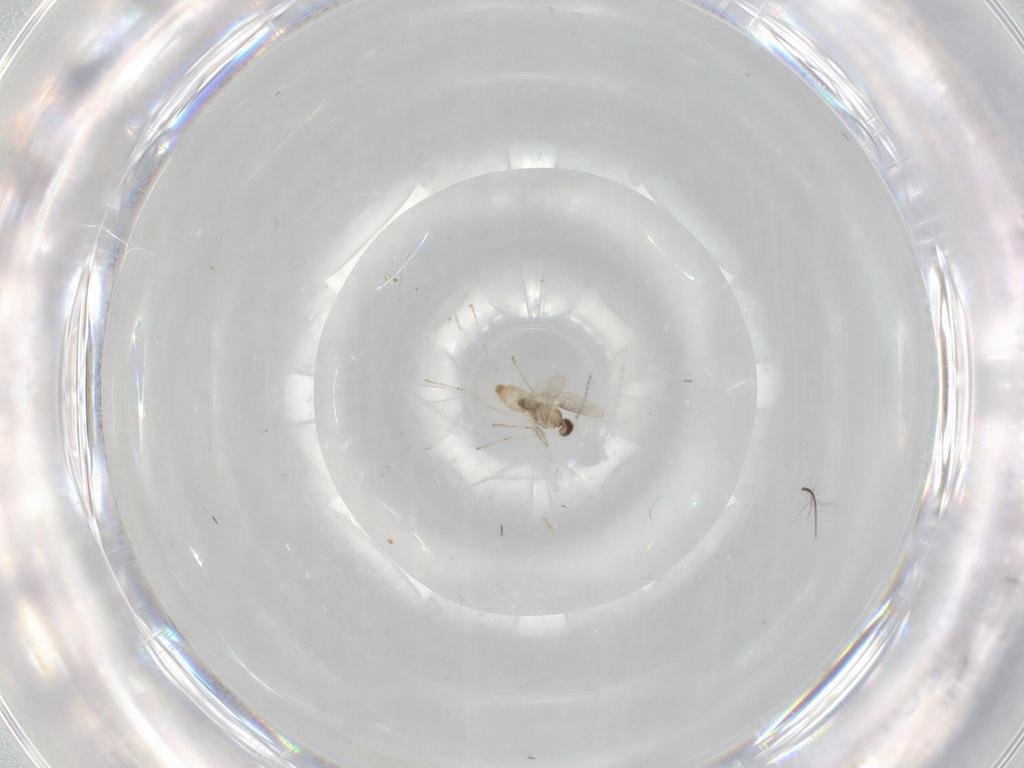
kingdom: Animalia
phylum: Arthropoda
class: Insecta
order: Diptera
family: Cecidomyiidae
